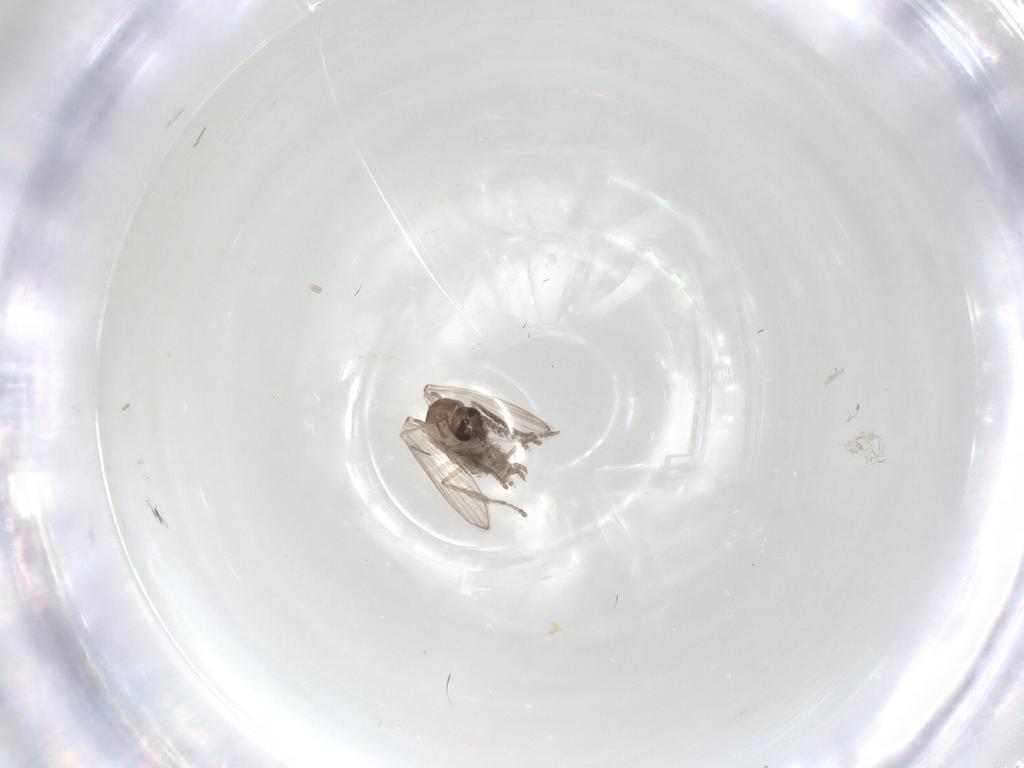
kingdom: Animalia
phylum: Arthropoda
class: Insecta
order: Diptera
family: Psychodidae
